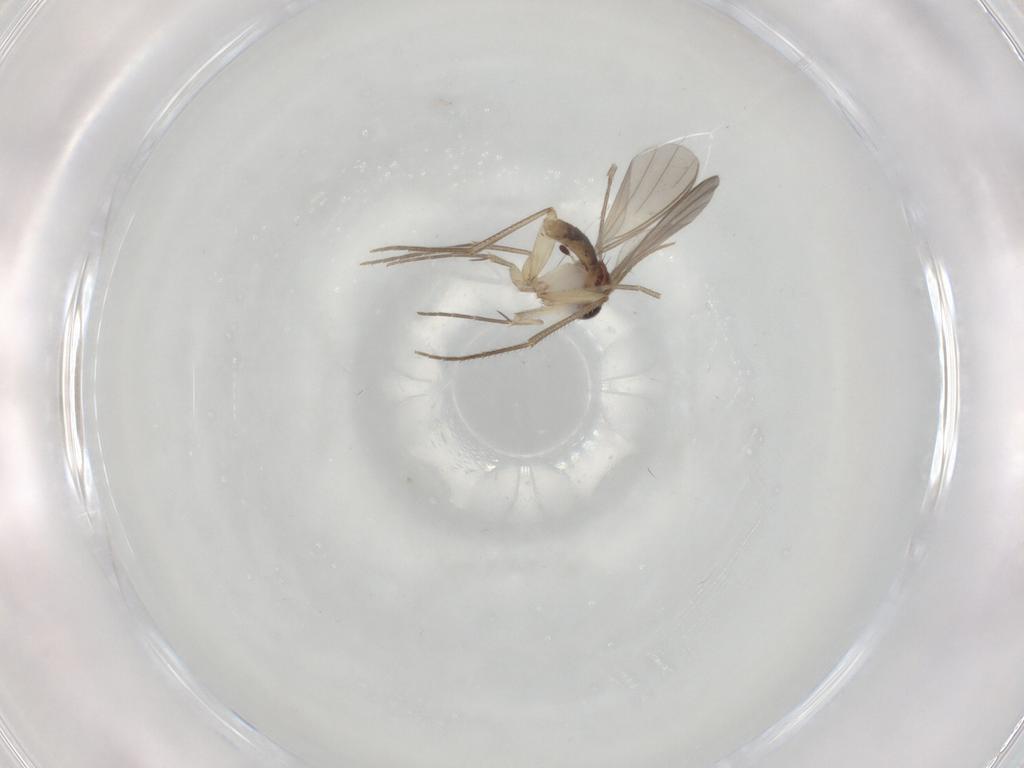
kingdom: Animalia
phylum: Arthropoda
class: Insecta
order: Diptera
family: Mycetophilidae
